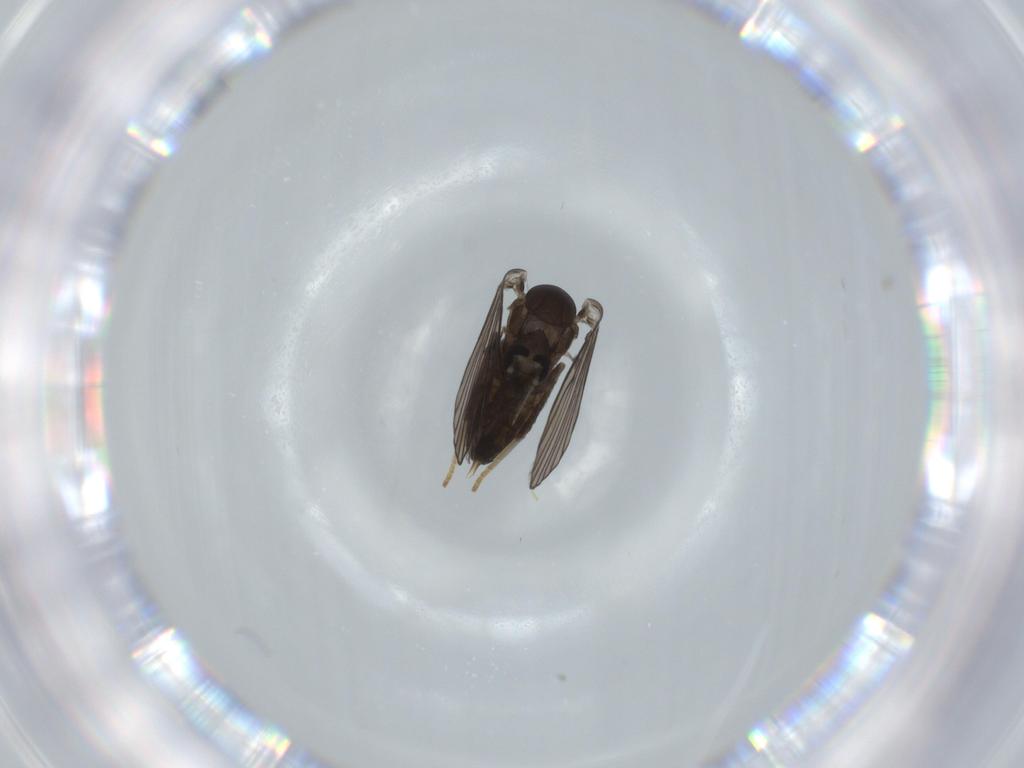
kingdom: Animalia
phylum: Arthropoda
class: Insecta
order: Diptera
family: Psychodidae
